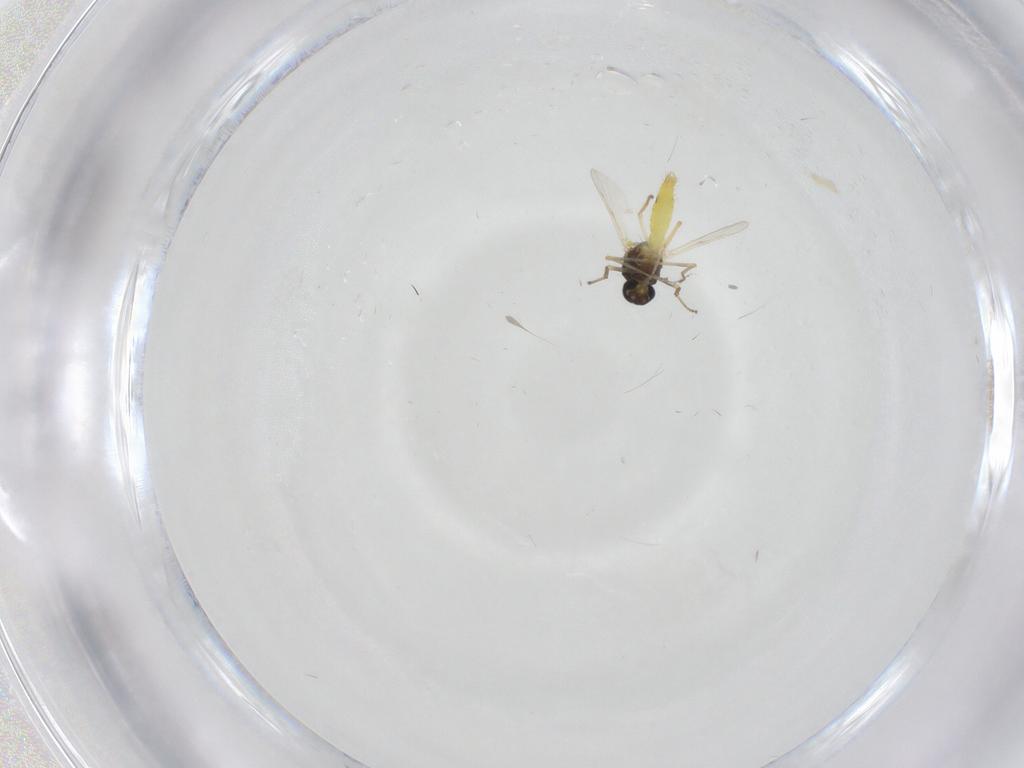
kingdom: Animalia
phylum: Arthropoda
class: Insecta
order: Diptera
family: Ceratopogonidae
